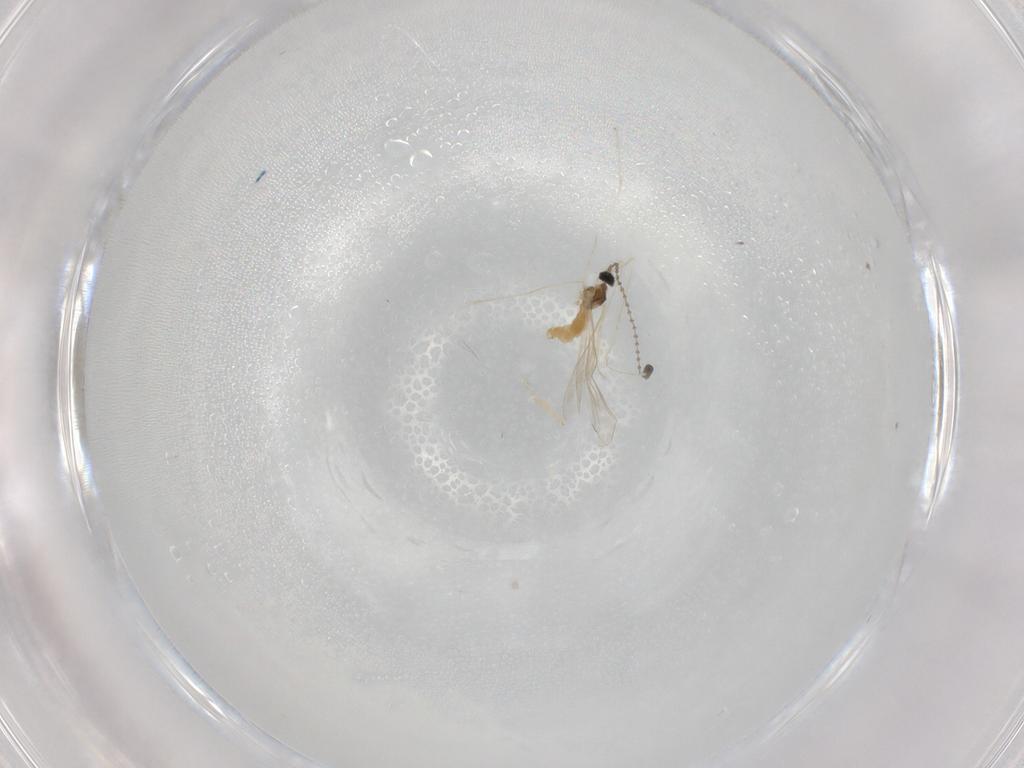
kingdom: Animalia
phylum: Arthropoda
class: Insecta
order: Diptera
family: Cecidomyiidae
